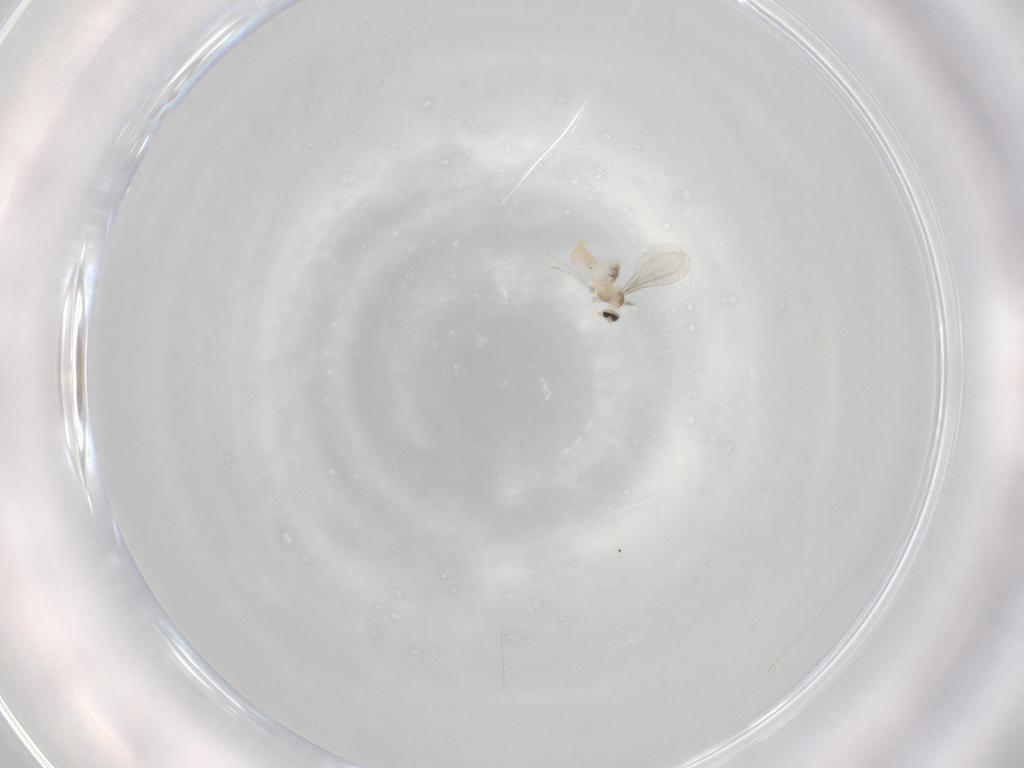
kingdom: Animalia
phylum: Arthropoda
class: Insecta
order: Diptera
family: Cecidomyiidae
